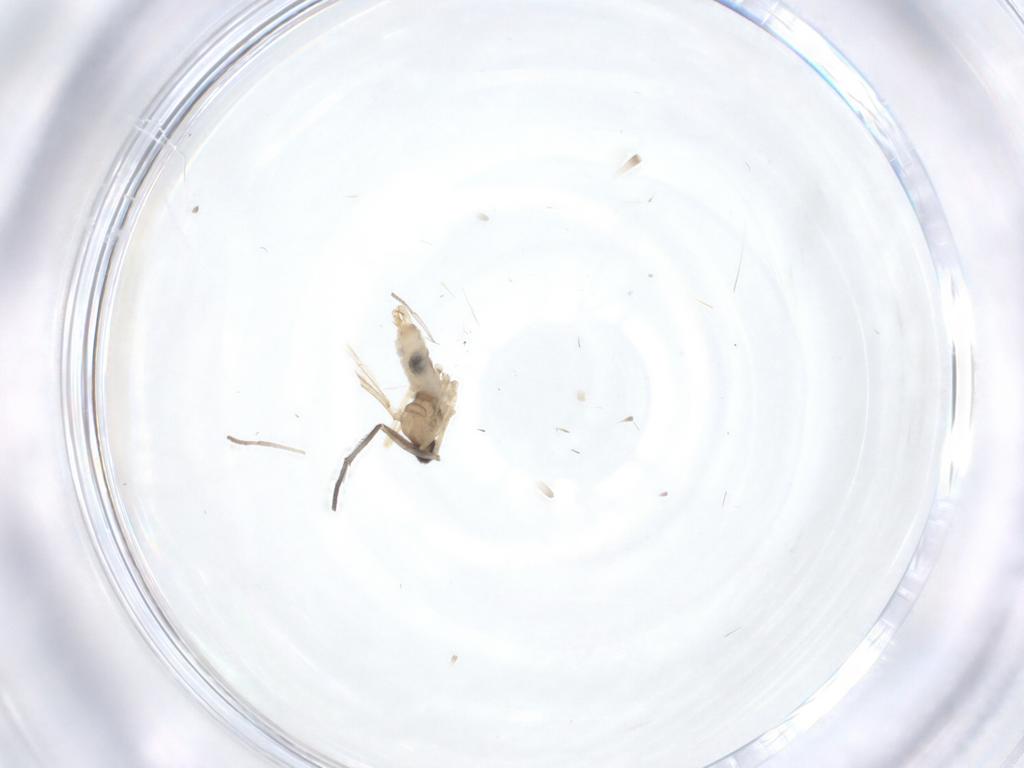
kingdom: Animalia
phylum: Arthropoda
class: Insecta
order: Diptera
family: Cecidomyiidae
